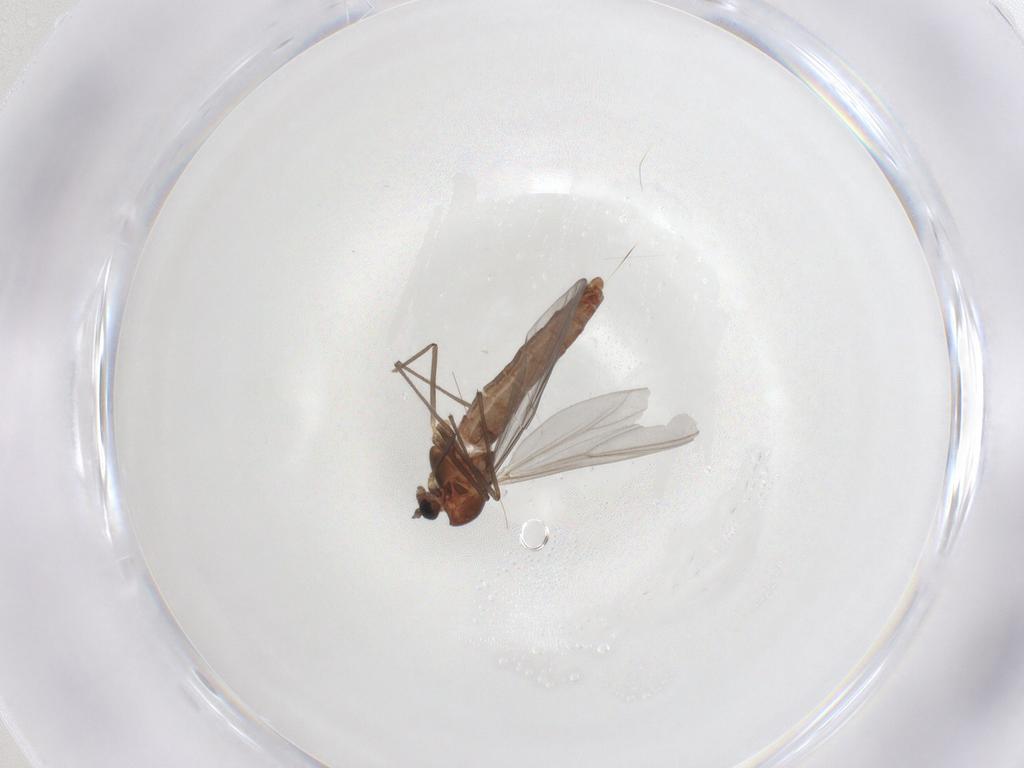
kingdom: Animalia
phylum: Arthropoda
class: Insecta
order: Diptera
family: Chironomidae
